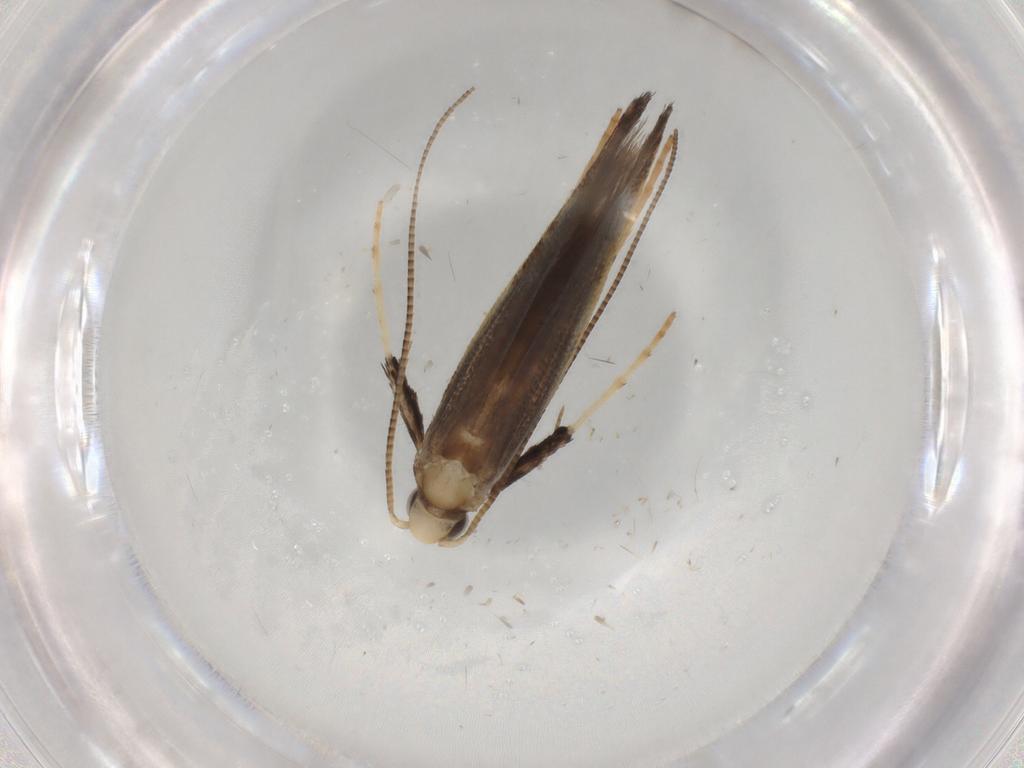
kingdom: Animalia
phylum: Arthropoda
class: Insecta
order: Lepidoptera
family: Gracillariidae
